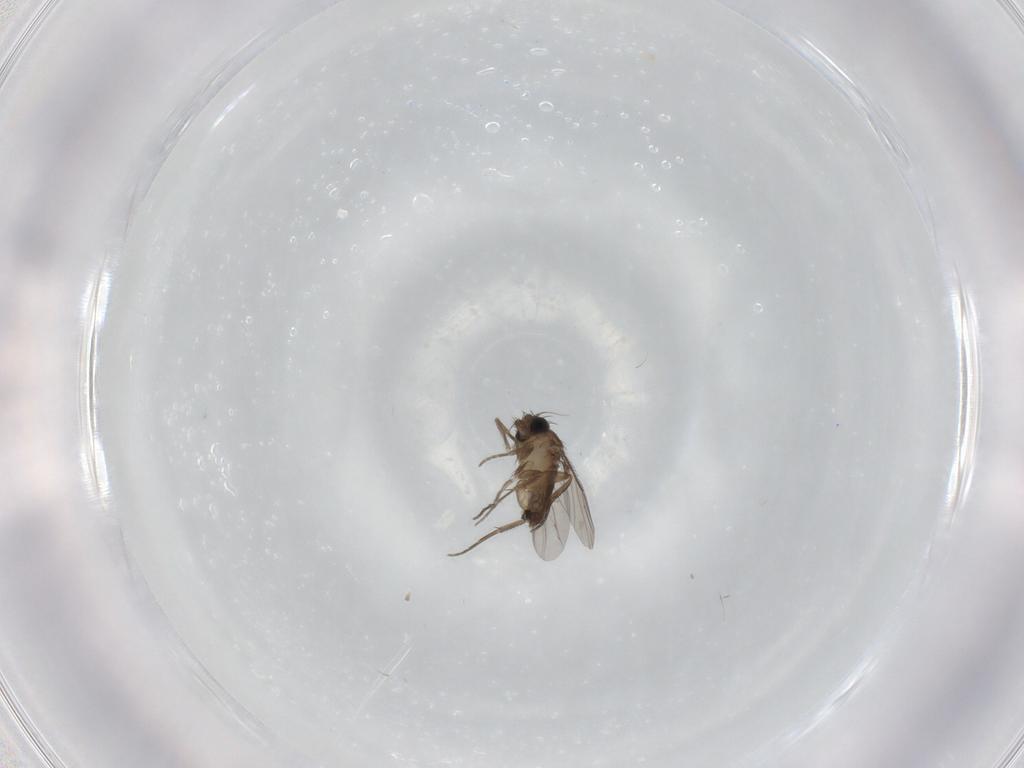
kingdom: Animalia
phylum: Arthropoda
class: Insecta
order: Diptera
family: Phoridae
